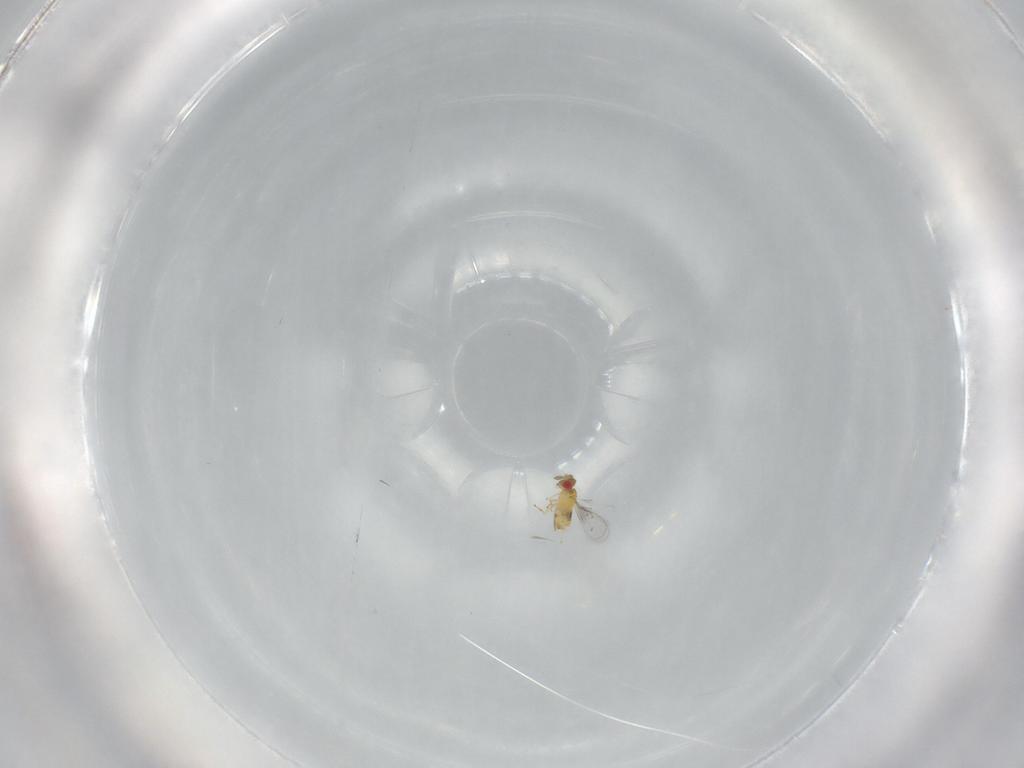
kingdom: Animalia
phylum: Arthropoda
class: Insecta
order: Hymenoptera
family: Trichogrammatidae
